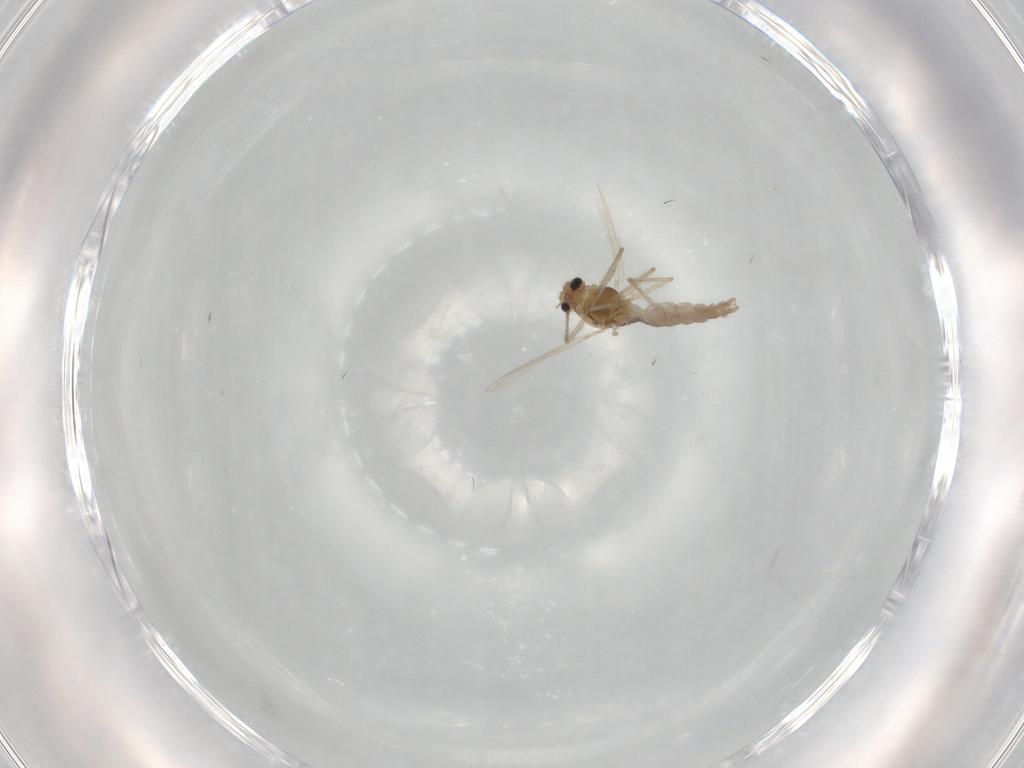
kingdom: Animalia
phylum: Arthropoda
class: Insecta
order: Diptera
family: Chironomidae
